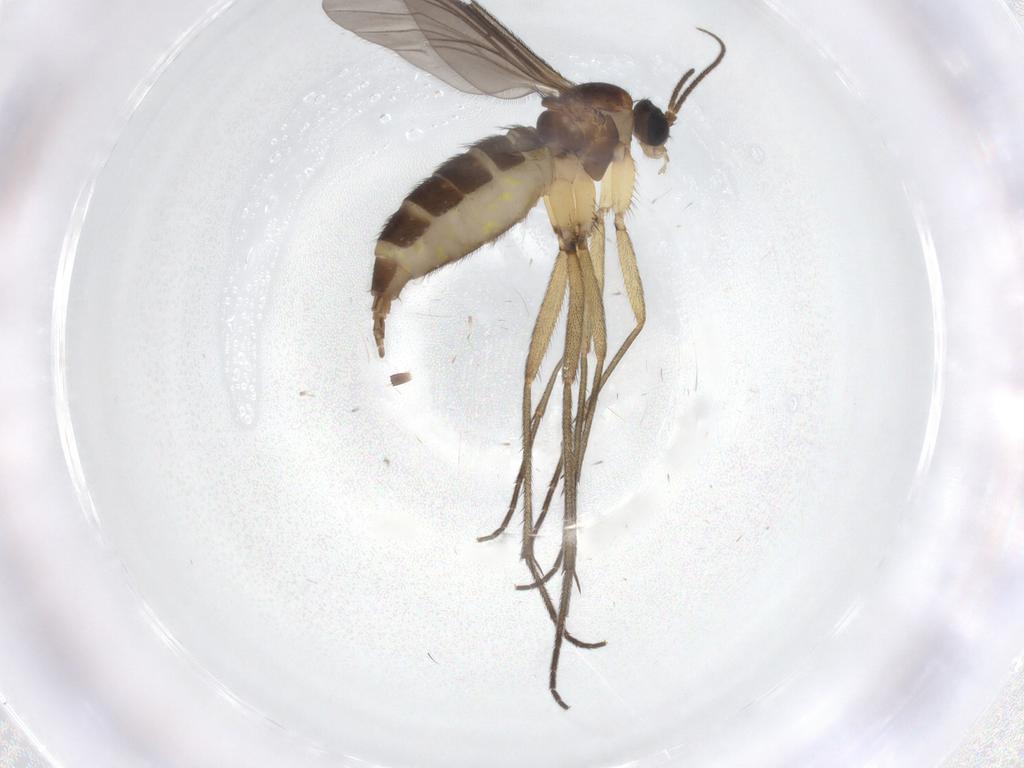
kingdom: Animalia
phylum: Arthropoda
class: Insecta
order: Diptera
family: Sciaridae
